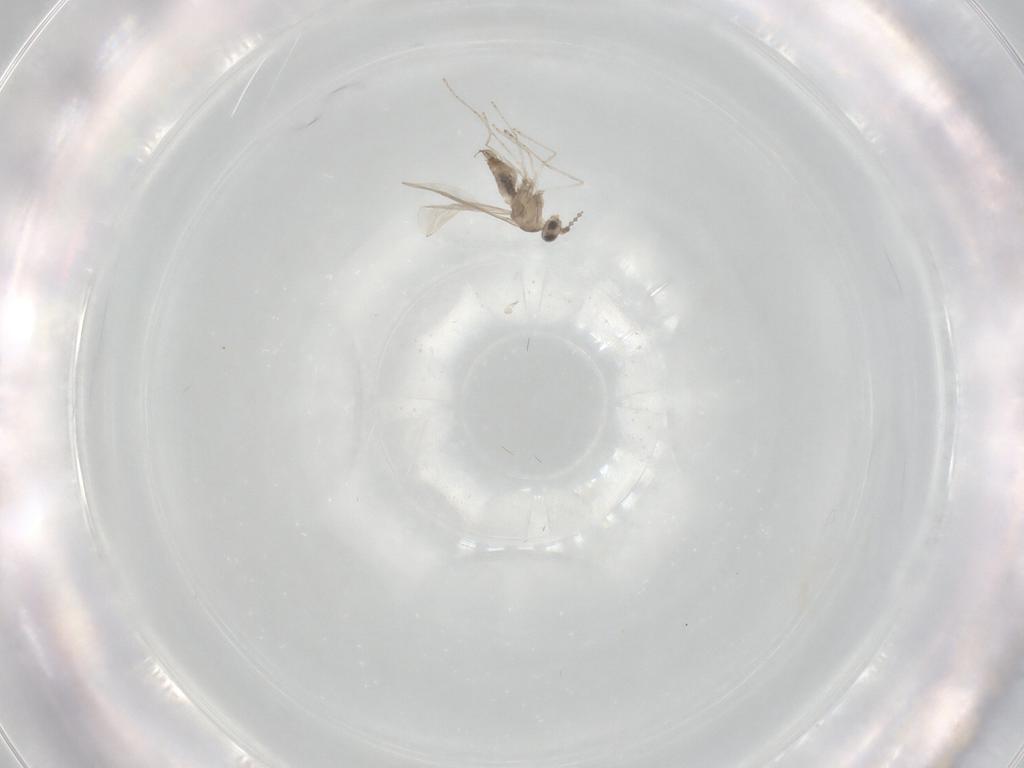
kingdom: Animalia
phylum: Arthropoda
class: Insecta
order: Diptera
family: Cecidomyiidae
